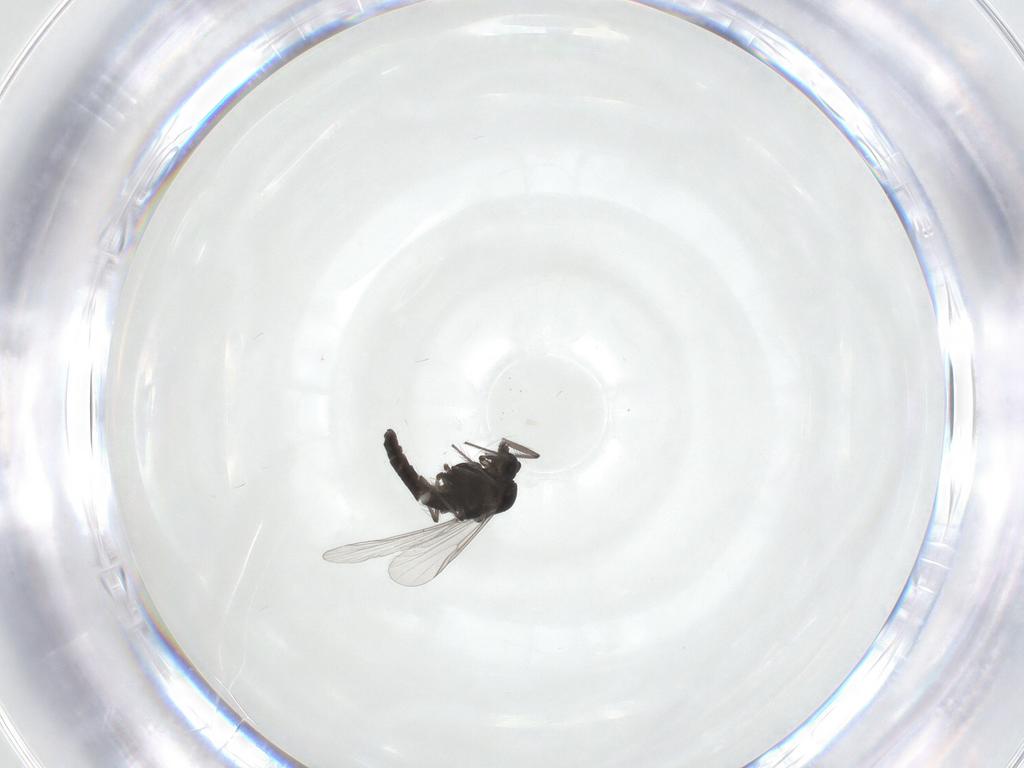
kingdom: Animalia
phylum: Arthropoda
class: Insecta
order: Diptera
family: Chironomidae
